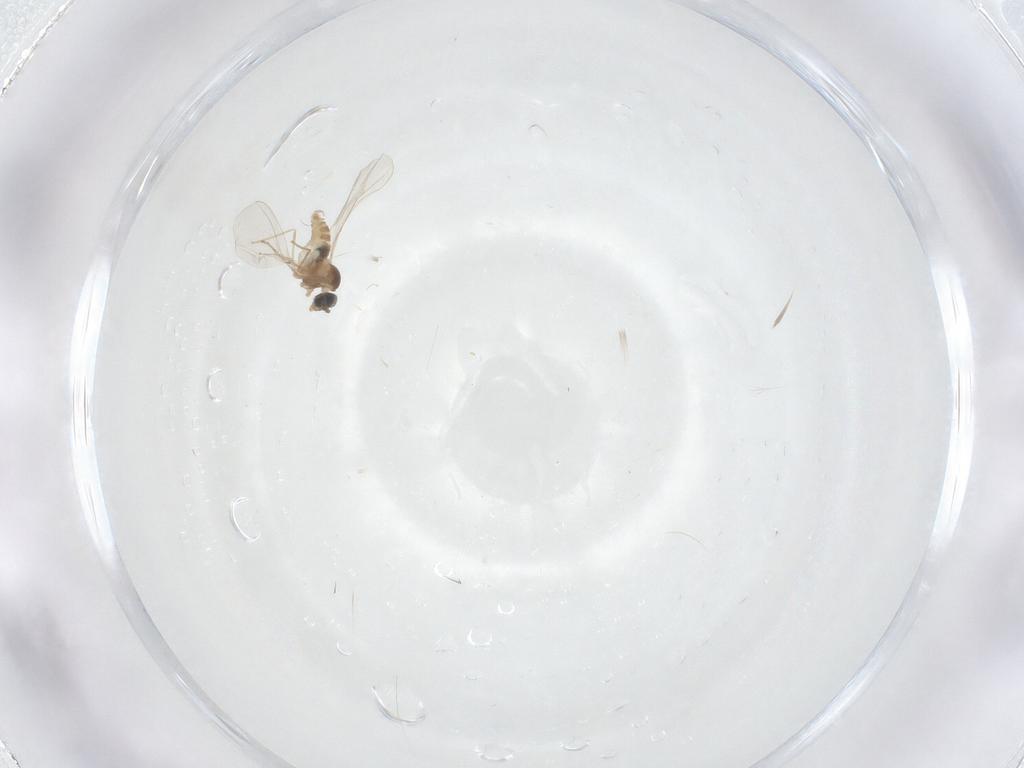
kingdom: Animalia
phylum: Arthropoda
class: Insecta
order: Diptera
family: Cecidomyiidae
